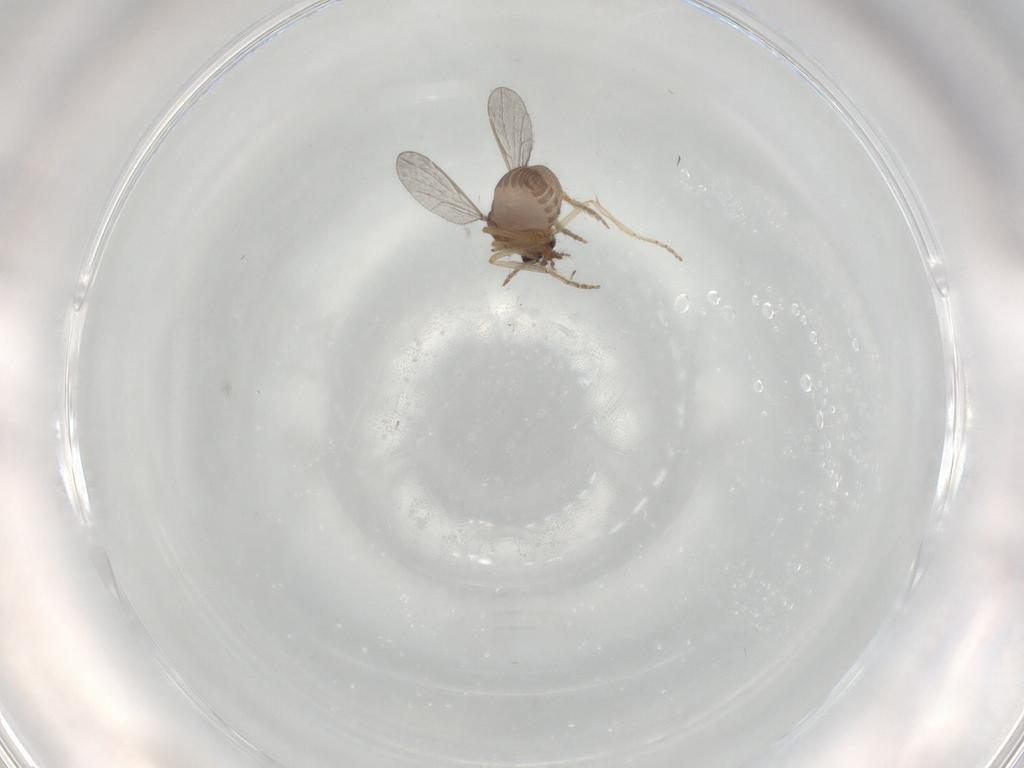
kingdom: Animalia
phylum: Arthropoda
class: Insecta
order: Diptera
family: Ceratopogonidae
